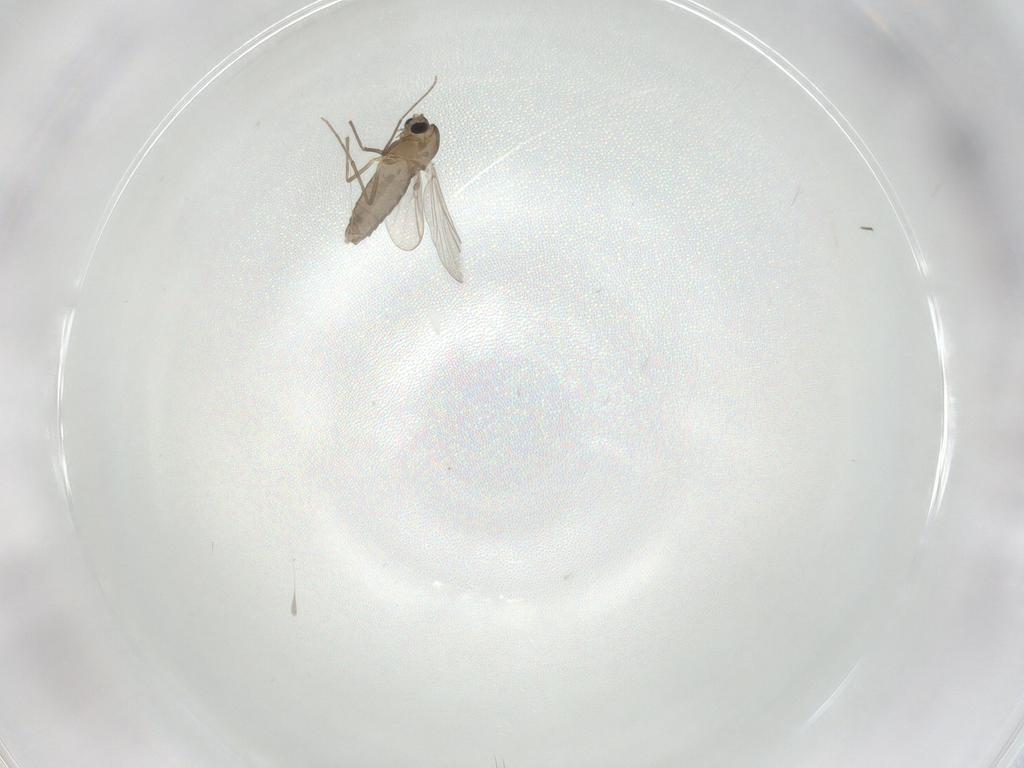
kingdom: Animalia
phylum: Arthropoda
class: Insecta
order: Diptera
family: Chironomidae
